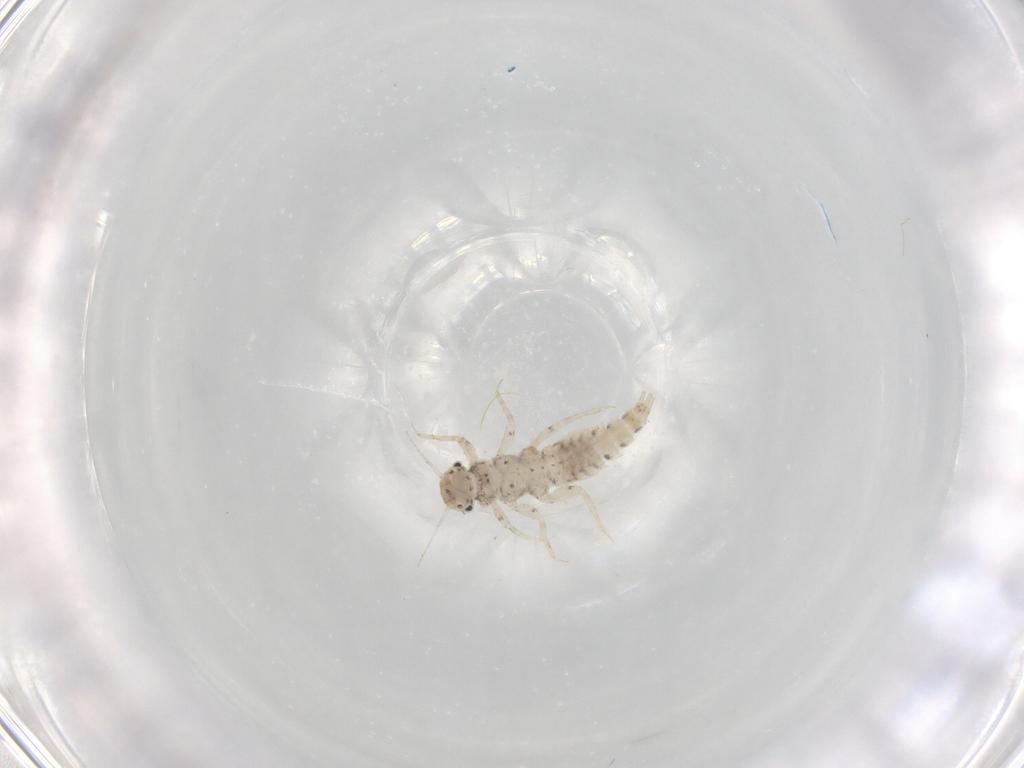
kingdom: Animalia
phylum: Arthropoda
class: Insecta
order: Ephemeroptera
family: Caenidae
